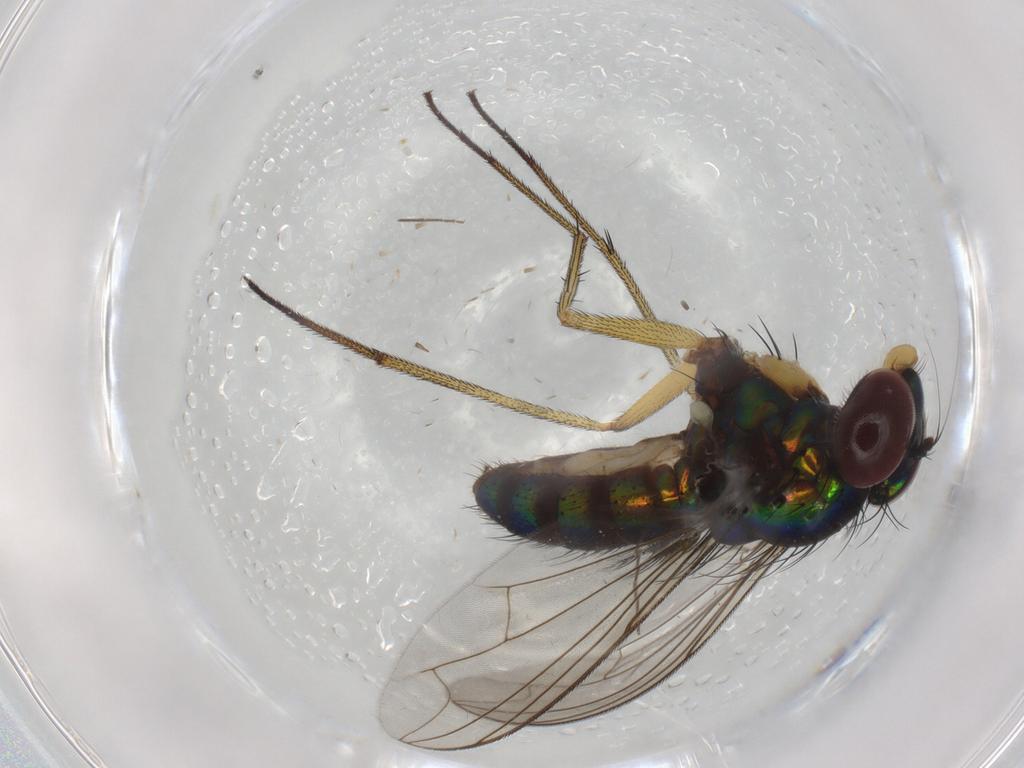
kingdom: Animalia
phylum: Arthropoda
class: Insecta
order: Diptera
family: Dolichopodidae
